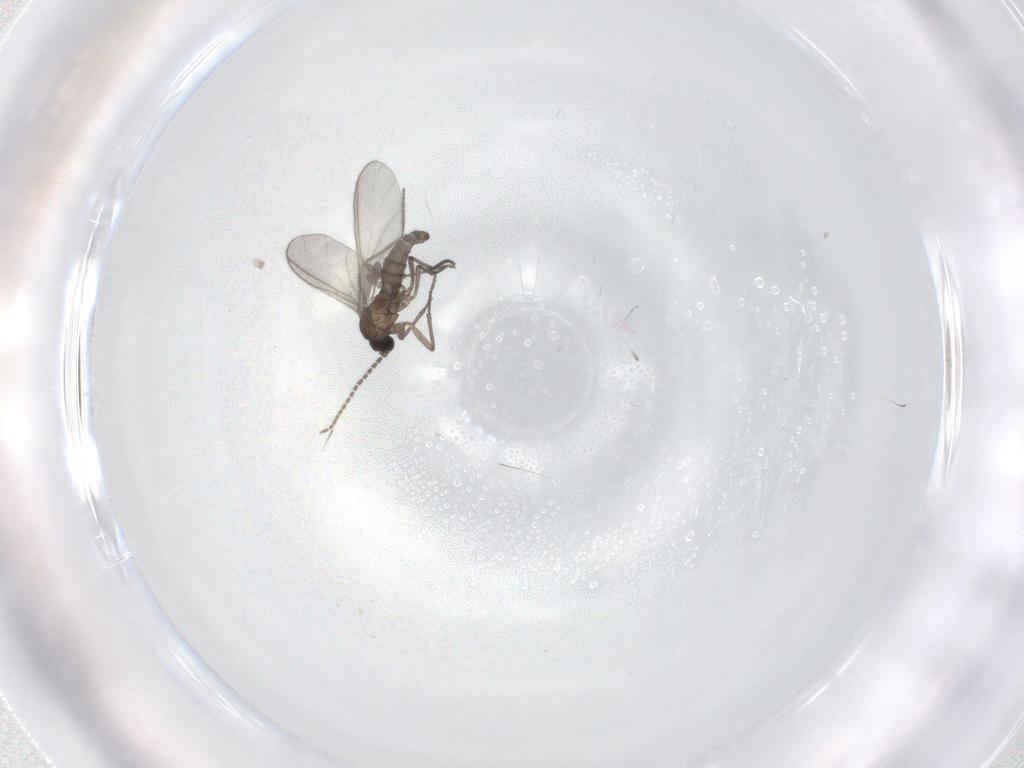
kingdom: Animalia
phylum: Arthropoda
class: Insecta
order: Diptera
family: Sciaridae
